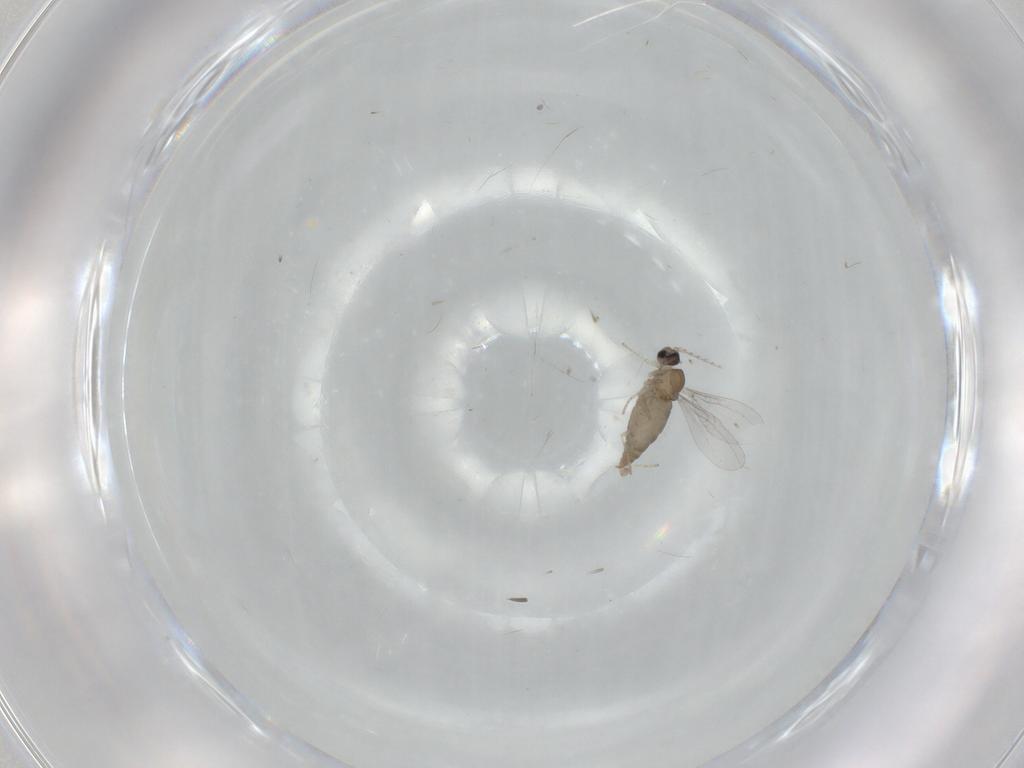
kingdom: Animalia
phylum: Arthropoda
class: Insecta
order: Diptera
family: Cecidomyiidae
